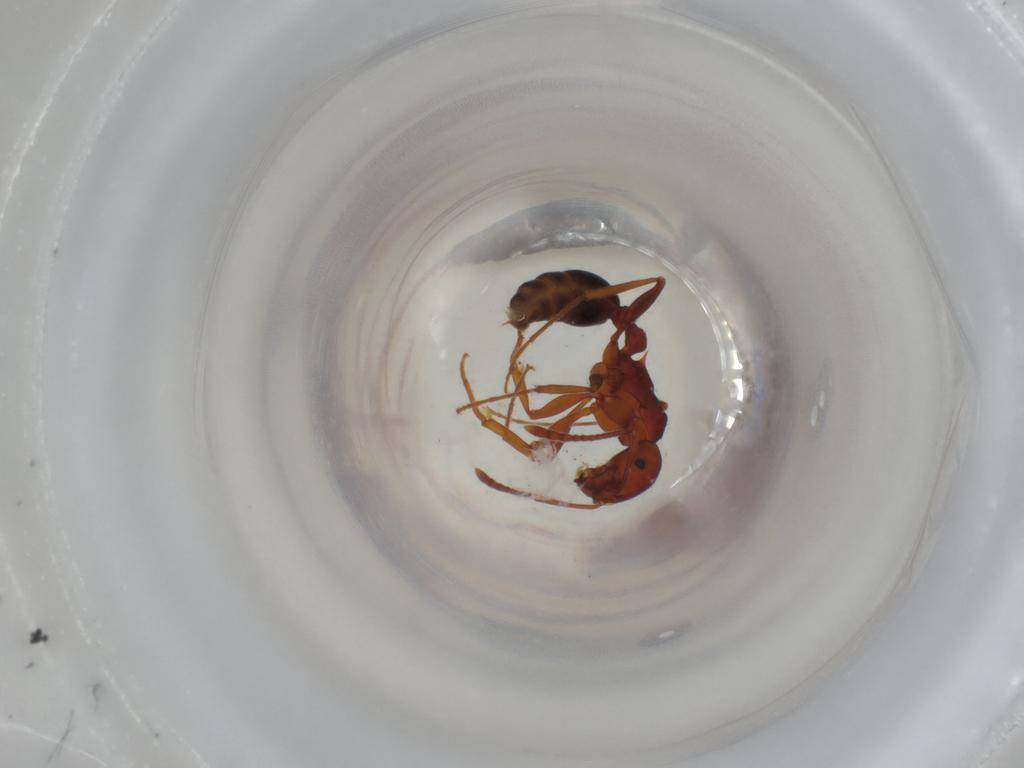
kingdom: Animalia
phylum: Arthropoda
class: Insecta
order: Hymenoptera
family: Formicidae
